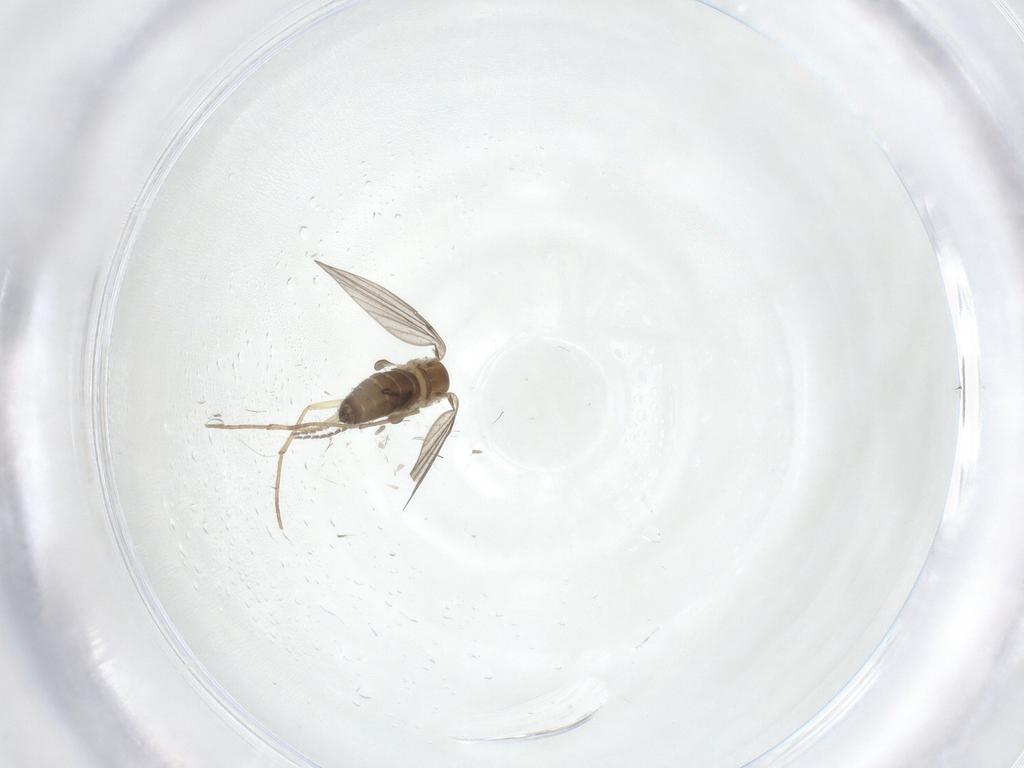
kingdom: Animalia
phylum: Arthropoda
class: Insecta
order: Diptera
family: Cecidomyiidae
